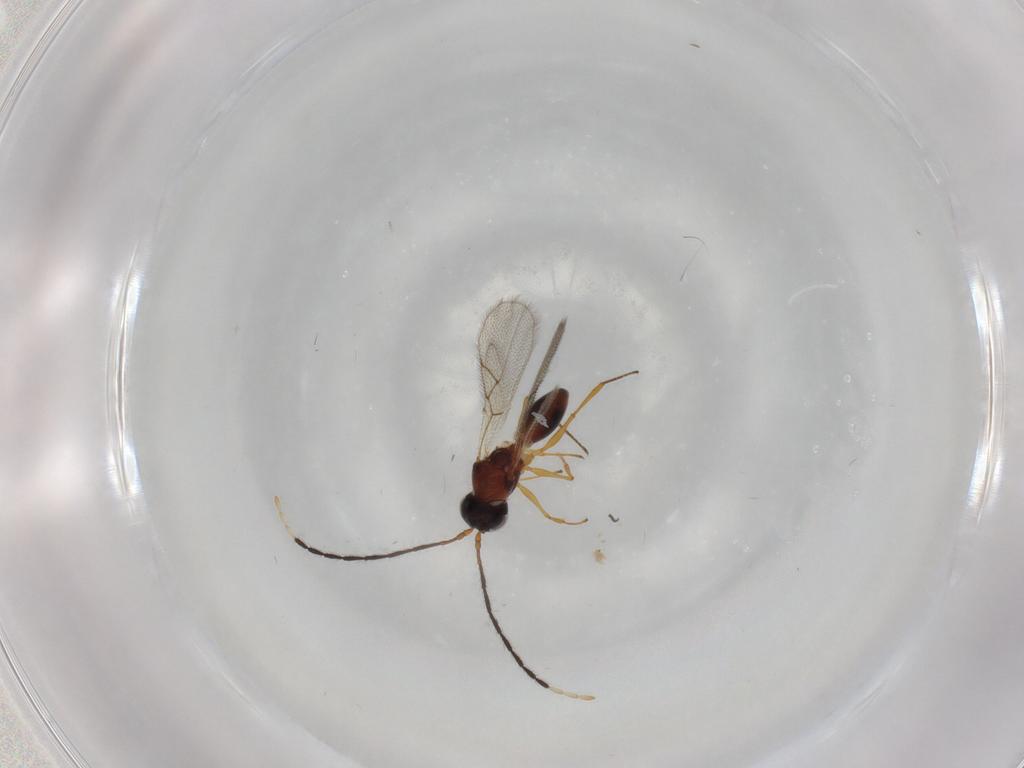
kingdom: Animalia
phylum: Arthropoda
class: Insecta
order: Hymenoptera
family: Figitidae
